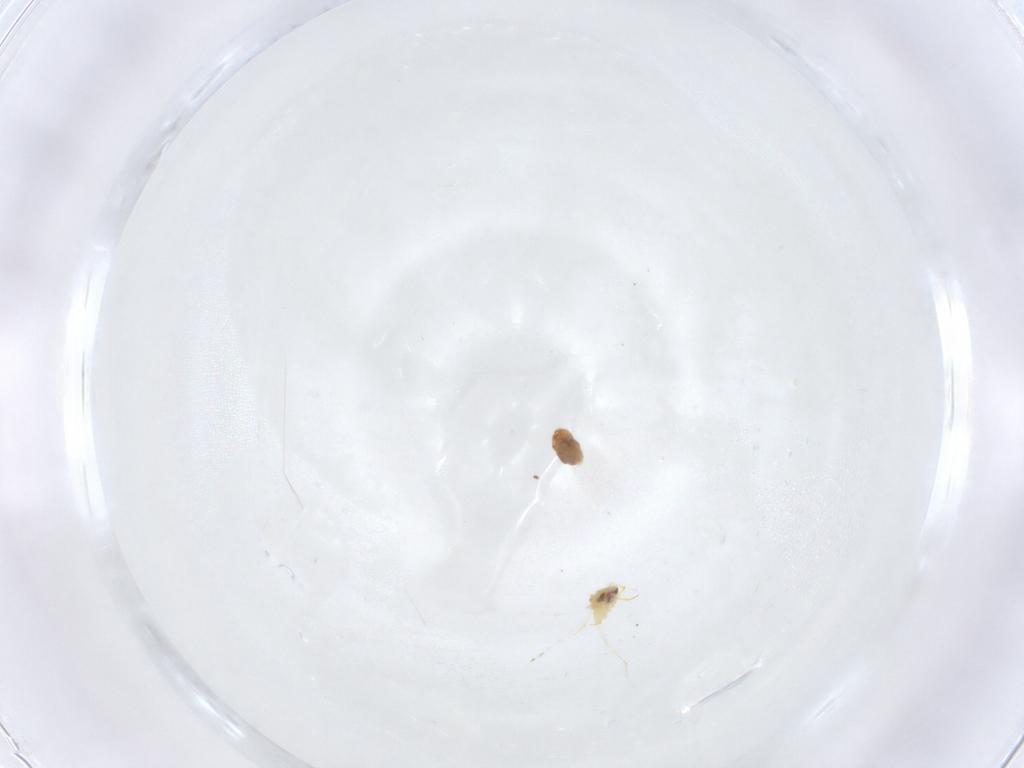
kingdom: Animalia
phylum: Arthropoda
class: Insecta
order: Hemiptera
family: Aleyrodidae
